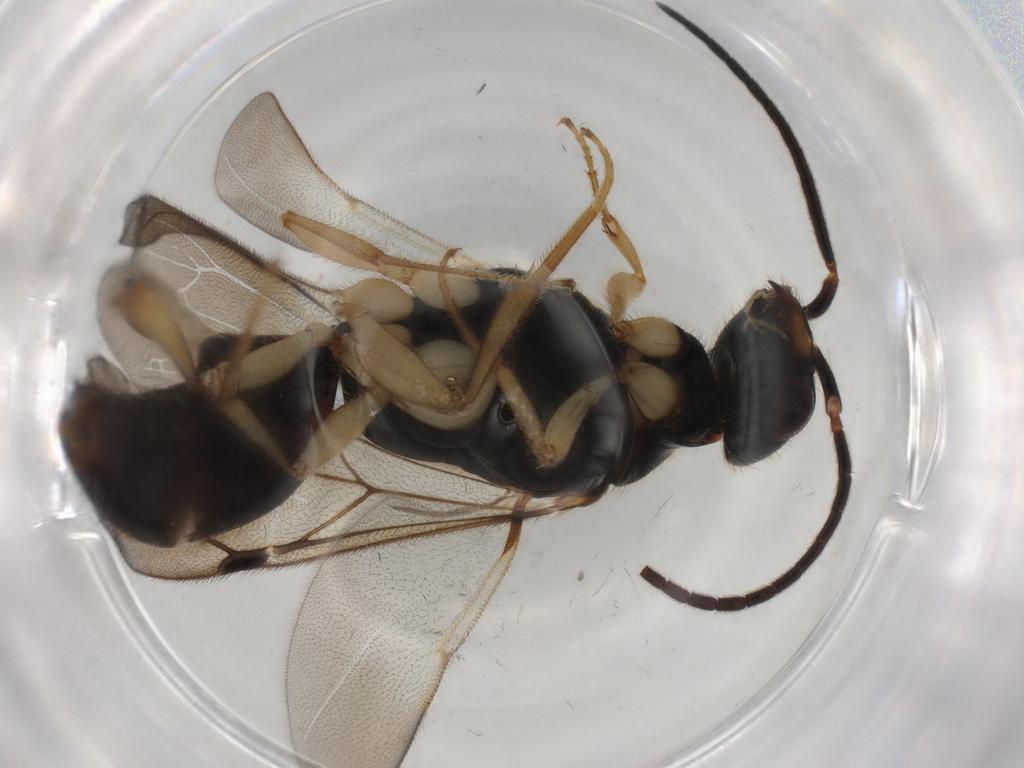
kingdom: Animalia
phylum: Arthropoda
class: Insecta
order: Hymenoptera
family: Bethylidae
